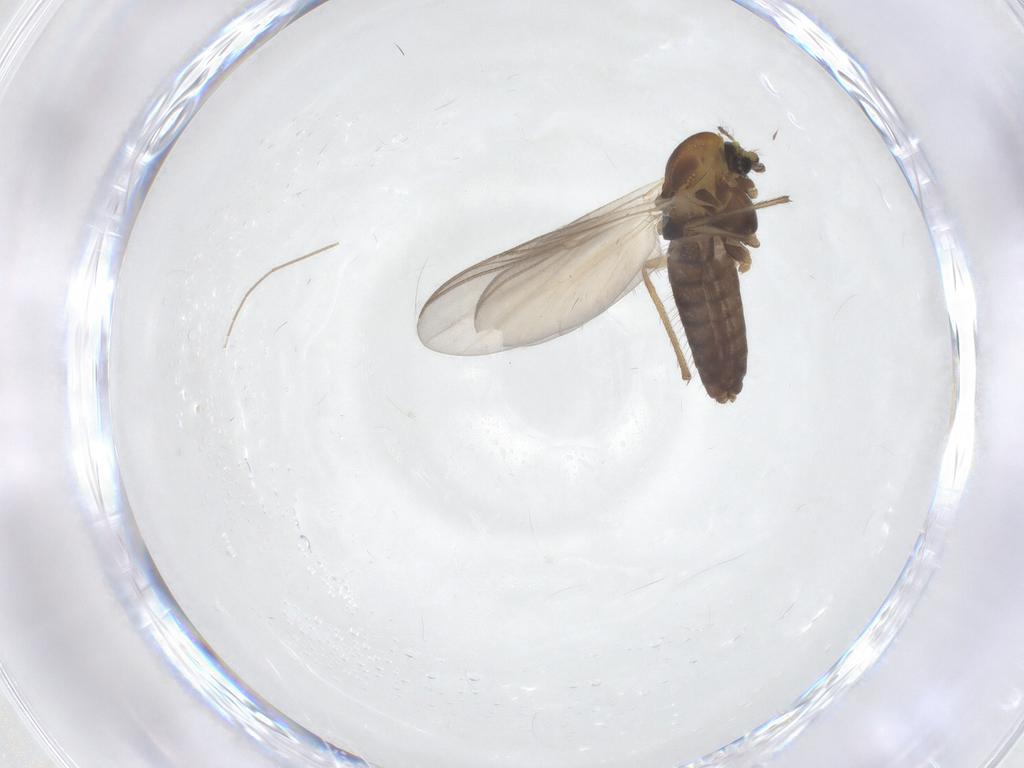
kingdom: Animalia
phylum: Arthropoda
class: Insecta
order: Diptera
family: Chironomidae
